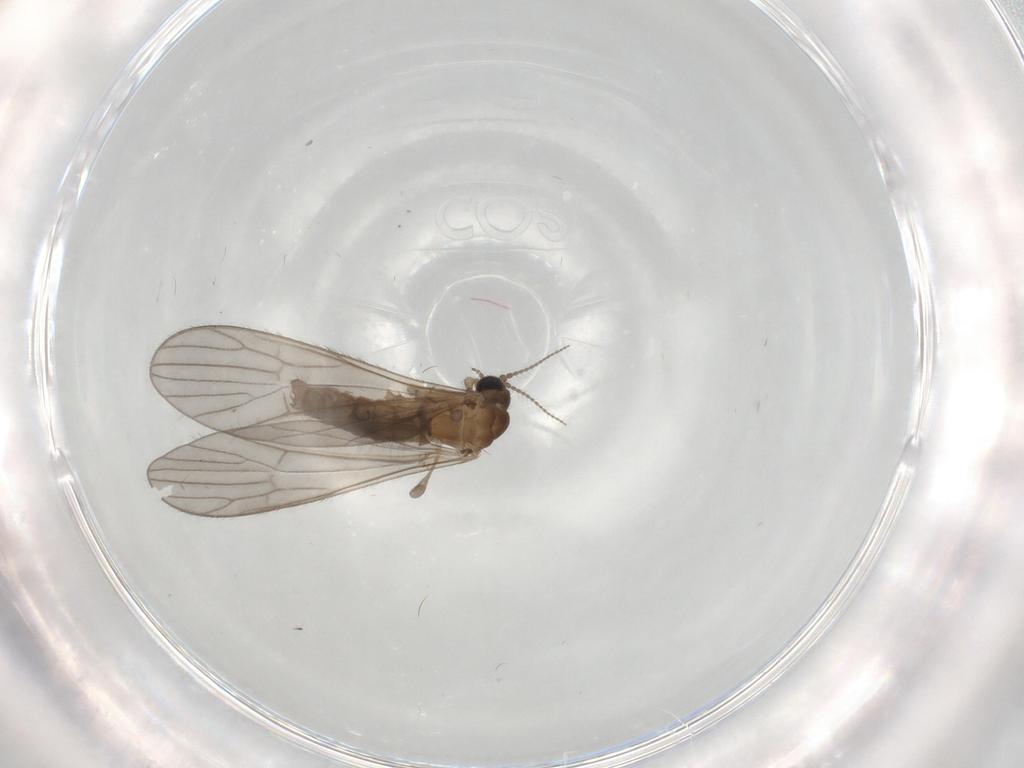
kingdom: Animalia
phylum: Arthropoda
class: Insecta
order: Diptera
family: Limoniidae
